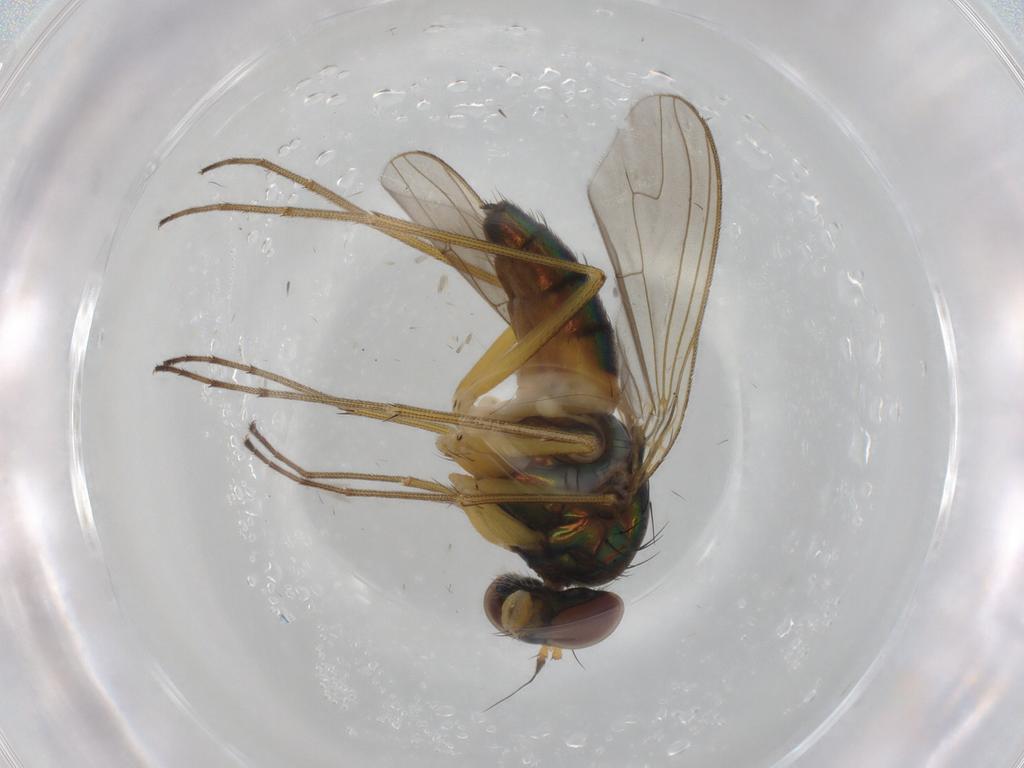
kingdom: Animalia
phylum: Arthropoda
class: Insecta
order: Diptera
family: Dolichopodidae
